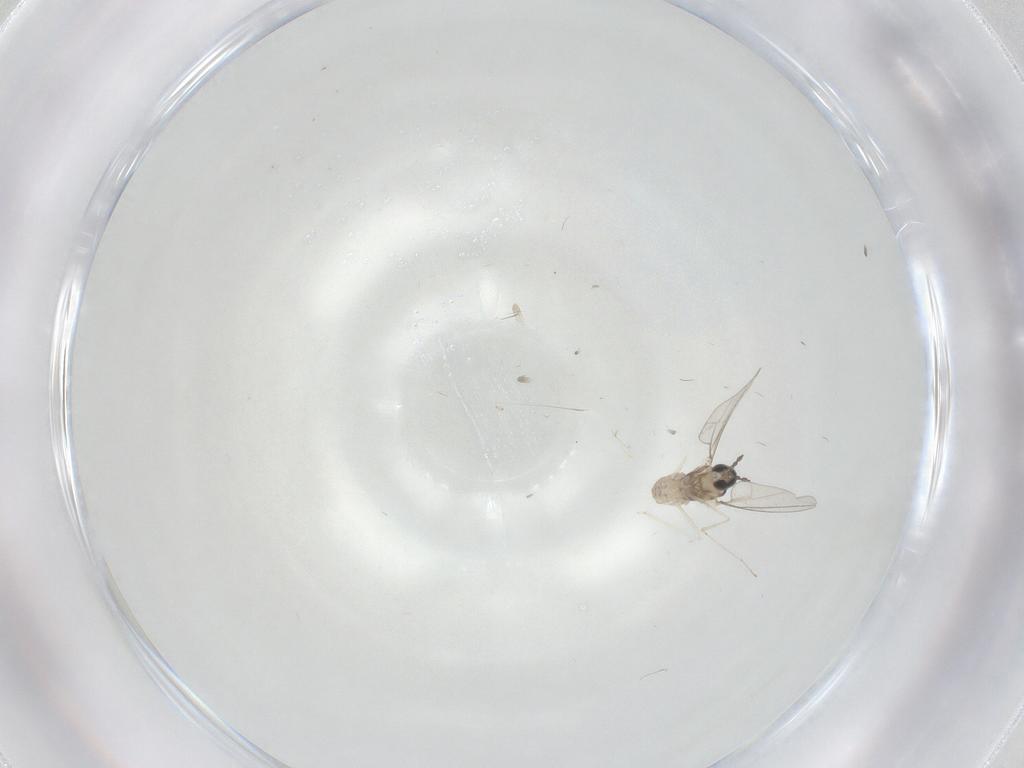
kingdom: Animalia
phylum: Arthropoda
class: Insecta
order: Diptera
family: Cecidomyiidae
